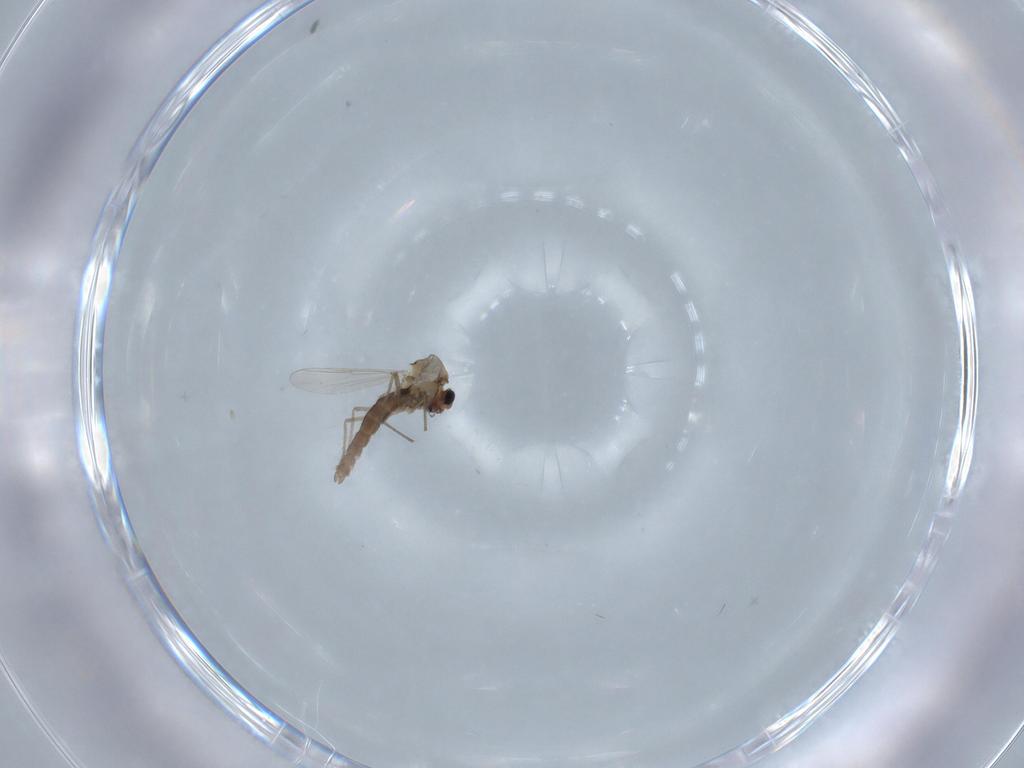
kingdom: Animalia
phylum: Arthropoda
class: Insecta
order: Diptera
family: Chironomidae
